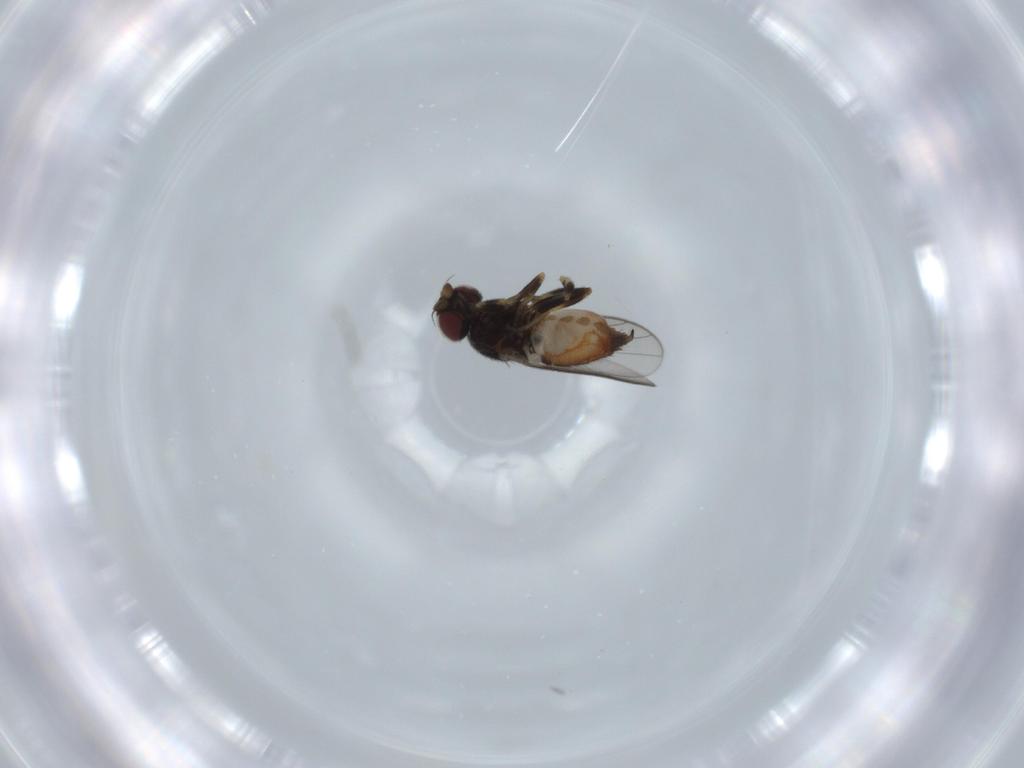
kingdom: Animalia
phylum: Arthropoda
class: Insecta
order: Diptera
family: Chloropidae
